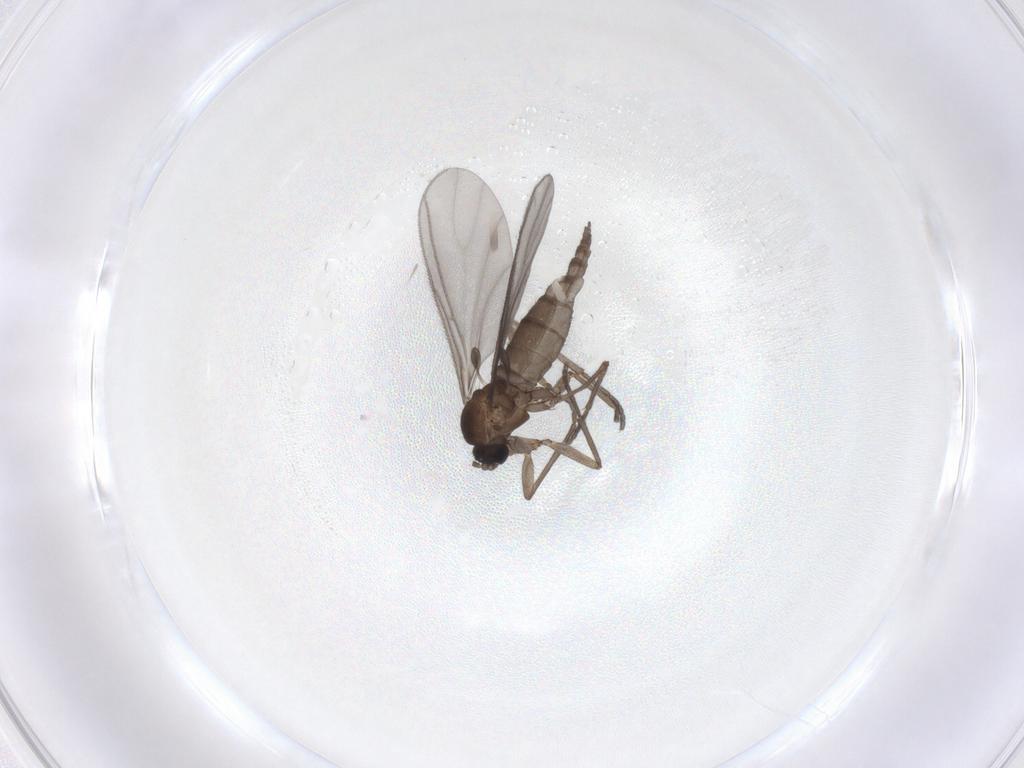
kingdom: Animalia
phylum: Arthropoda
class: Insecta
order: Diptera
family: Sciaridae
